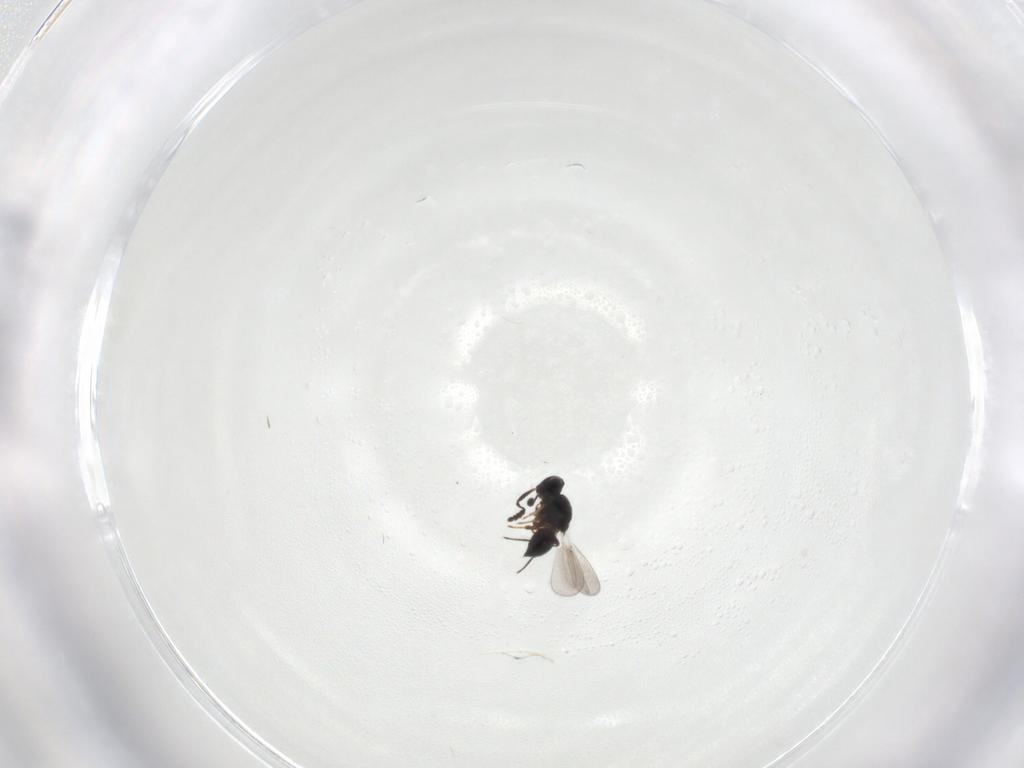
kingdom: Animalia
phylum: Arthropoda
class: Insecta
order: Hymenoptera
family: Platygastridae
